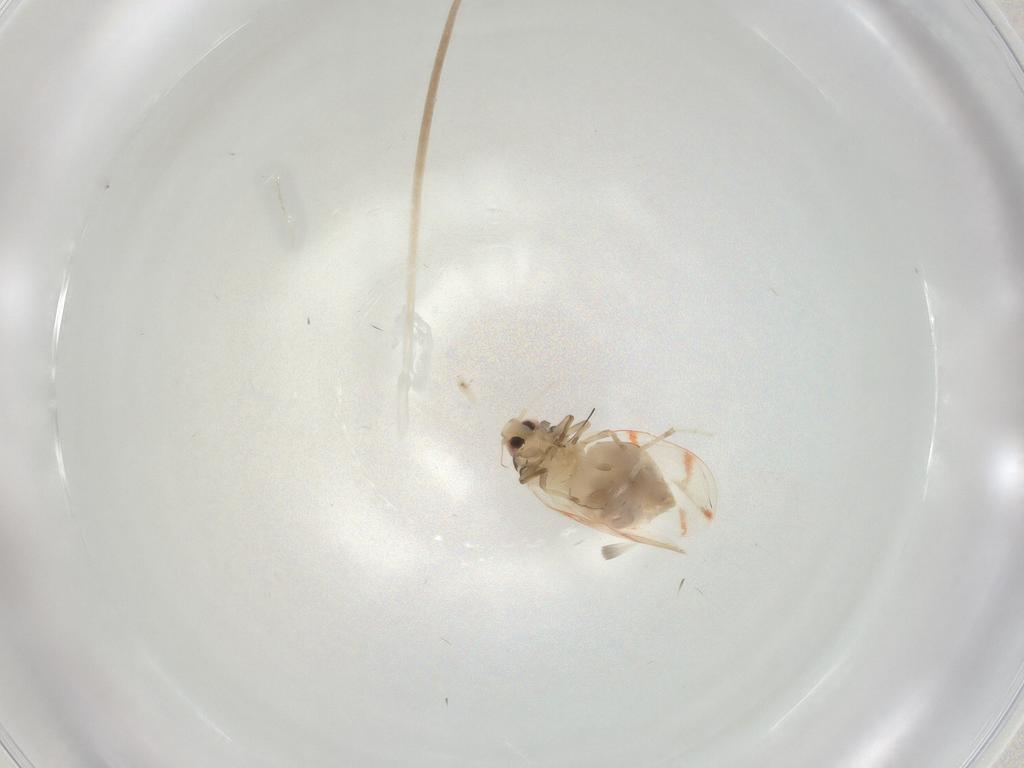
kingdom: Animalia
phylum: Arthropoda
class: Insecta
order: Hemiptera
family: Aleyrodidae
